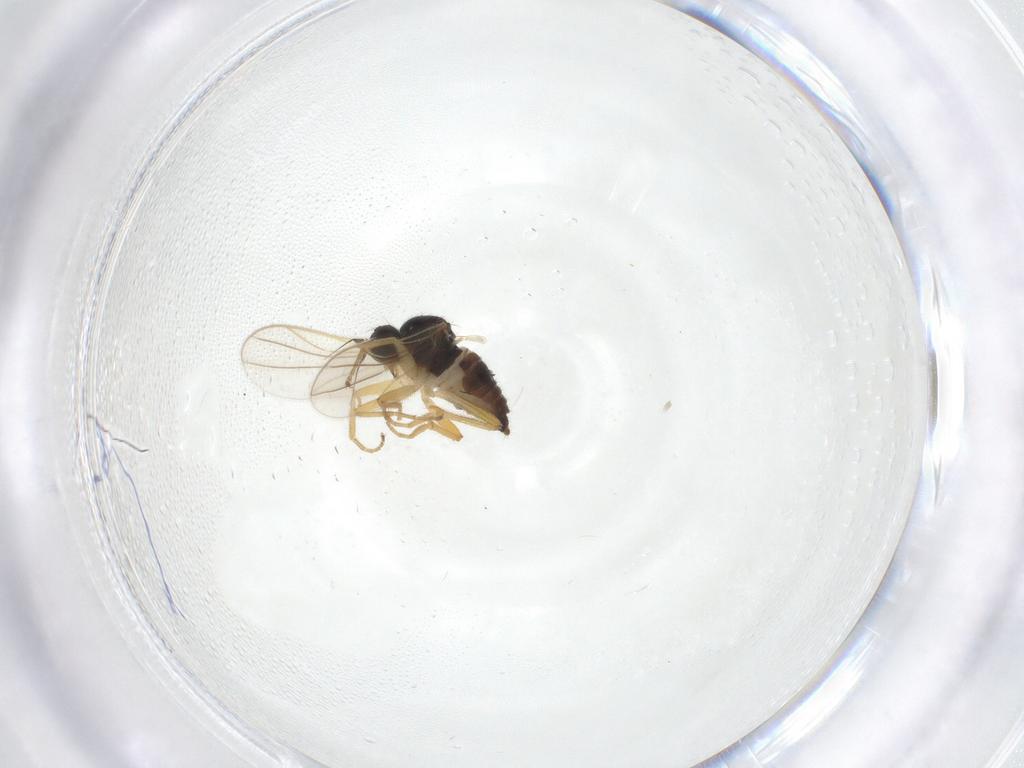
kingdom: Animalia
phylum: Arthropoda
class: Insecta
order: Diptera
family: Hybotidae
